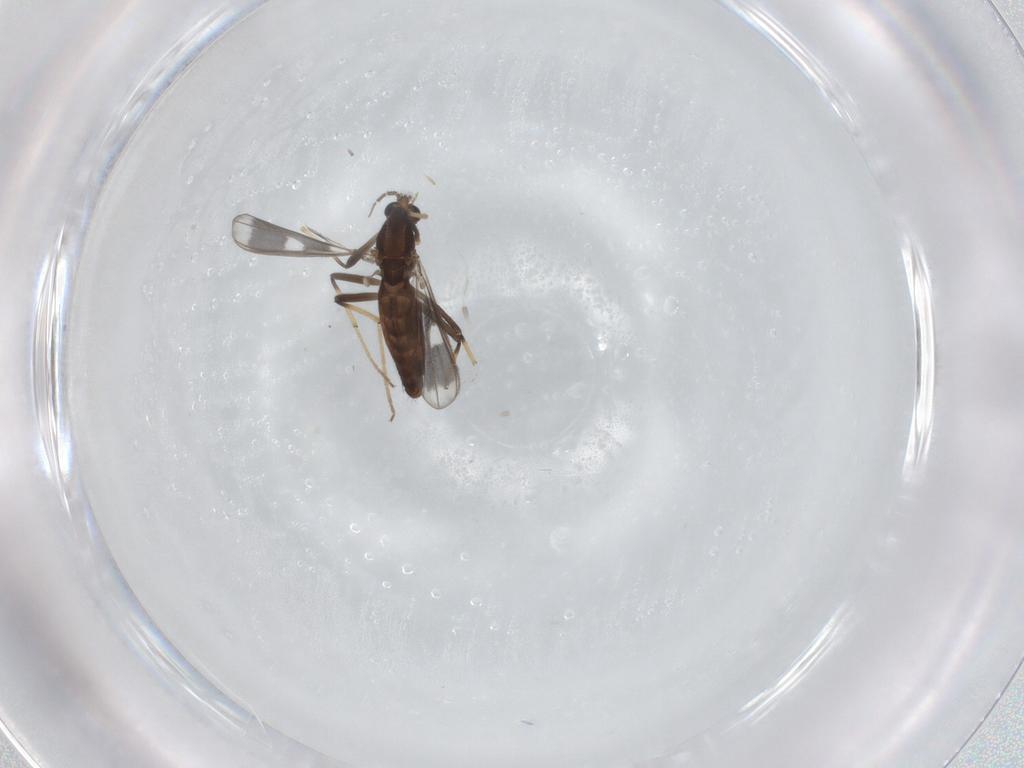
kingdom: Animalia
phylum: Arthropoda
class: Insecta
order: Diptera
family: Chironomidae
